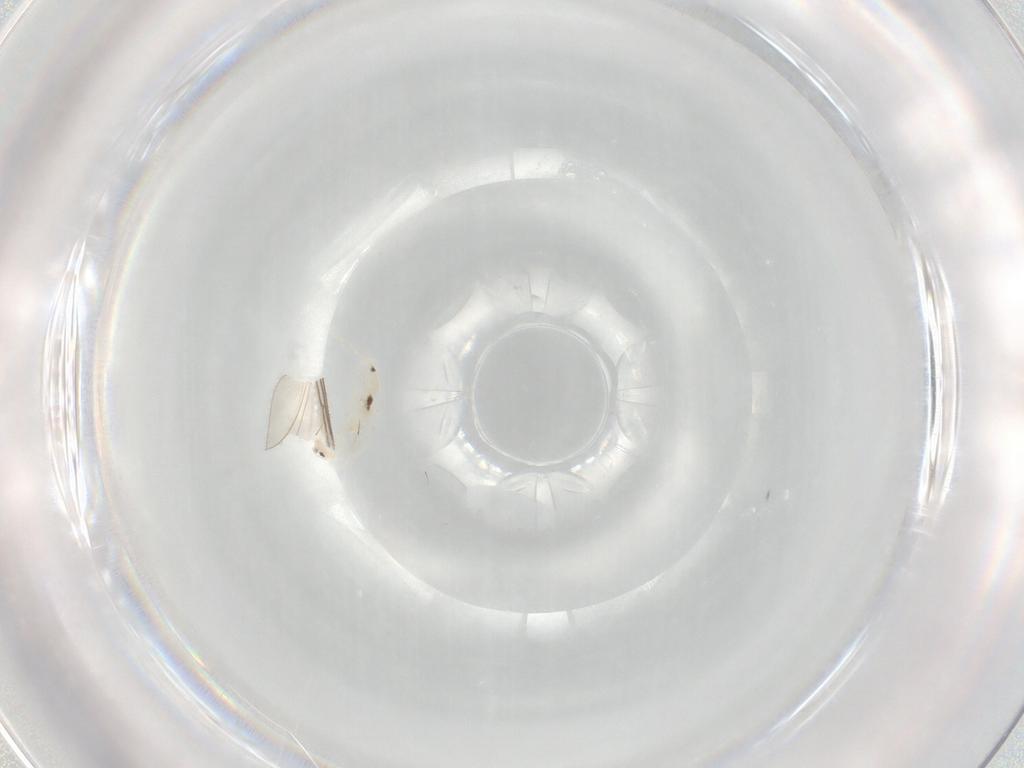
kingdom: Animalia
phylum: Arthropoda
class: Collembola
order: Entomobryomorpha
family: Entomobryidae
